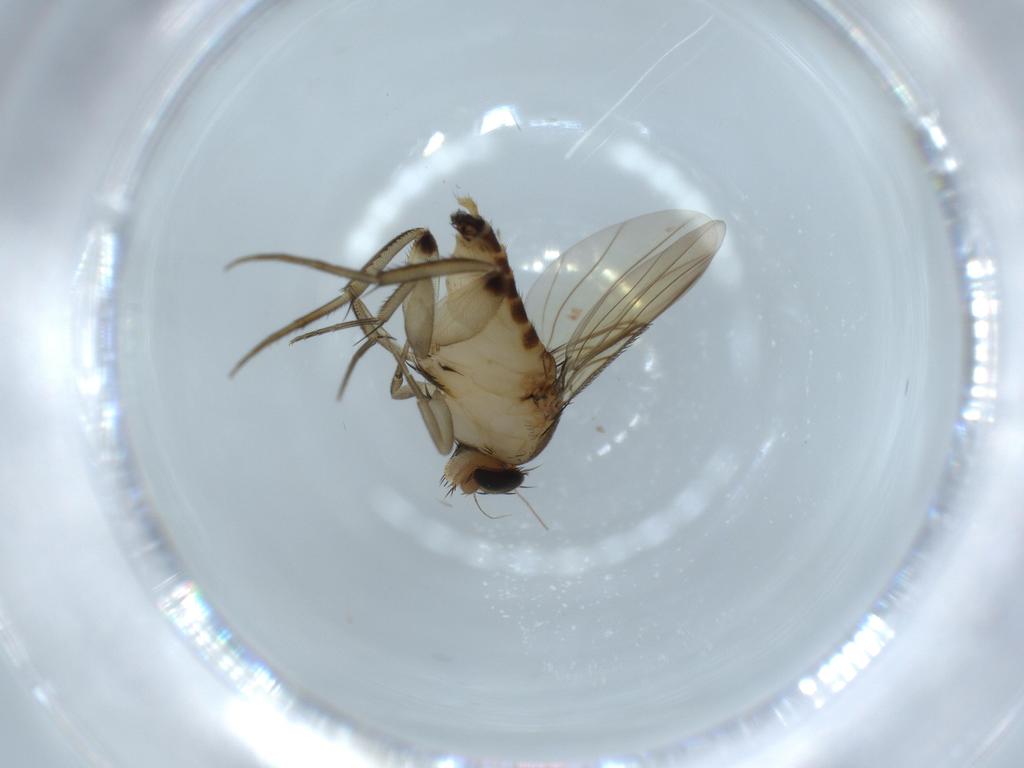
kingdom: Animalia
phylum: Arthropoda
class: Insecta
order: Diptera
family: Phoridae
